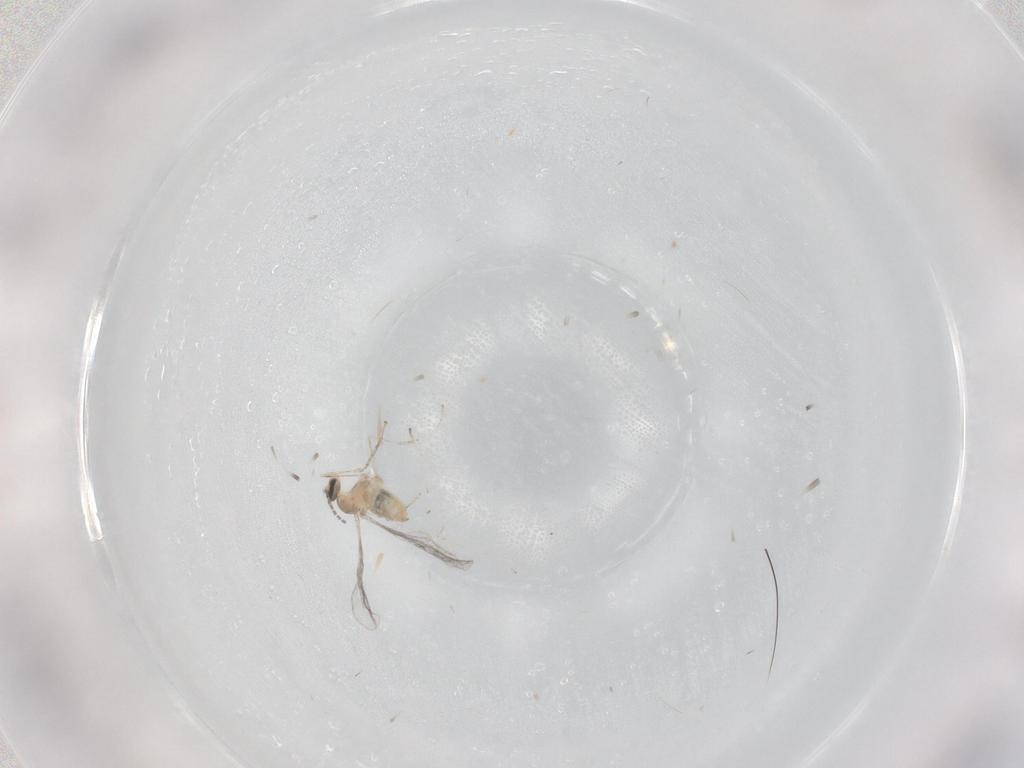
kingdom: Animalia
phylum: Arthropoda
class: Insecta
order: Diptera
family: Cecidomyiidae
